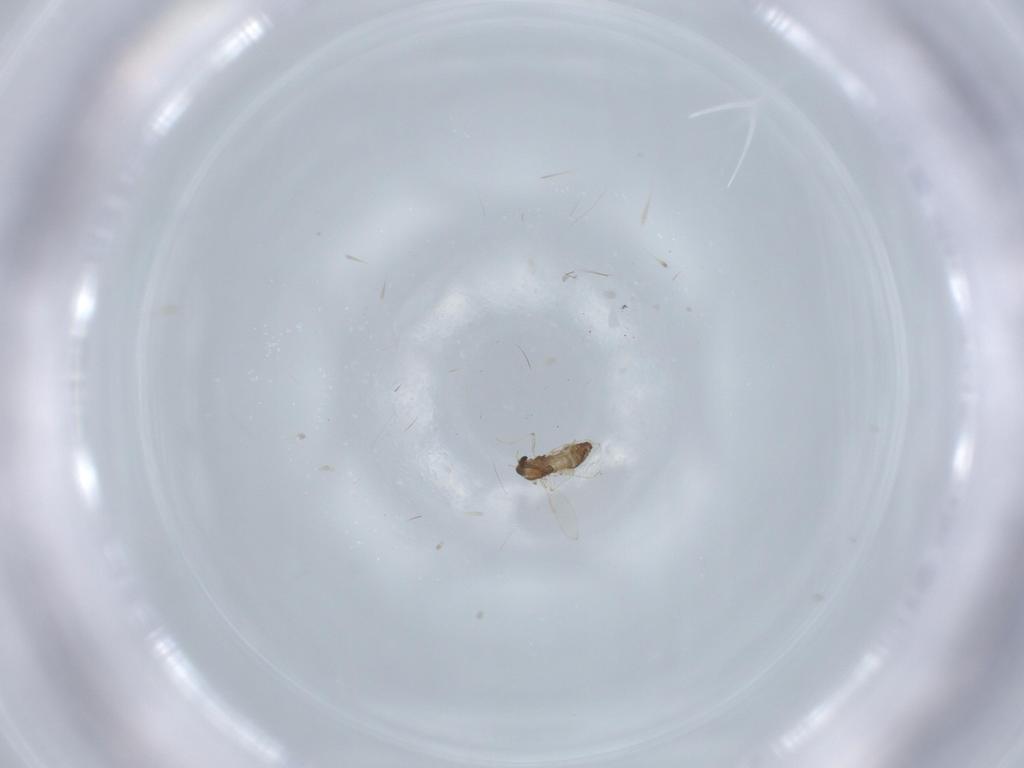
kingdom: Animalia
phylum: Arthropoda
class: Insecta
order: Diptera
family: Chironomidae
